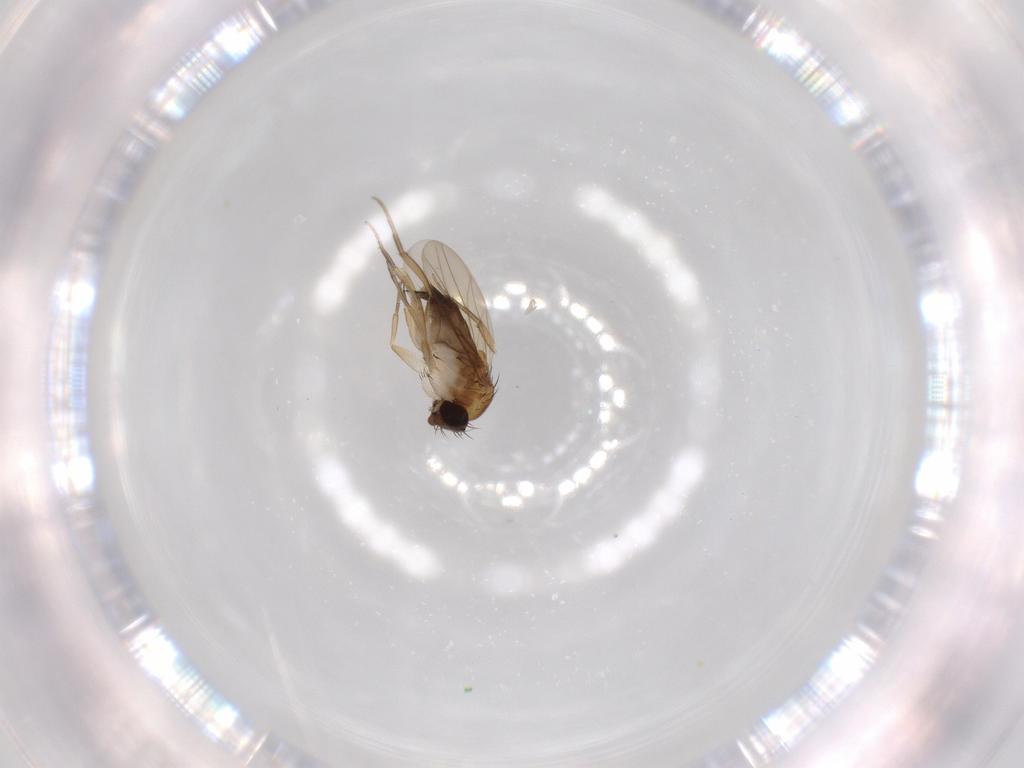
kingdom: Animalia
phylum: Arthropoda
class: Insecta
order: Diptera
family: Phoridae
